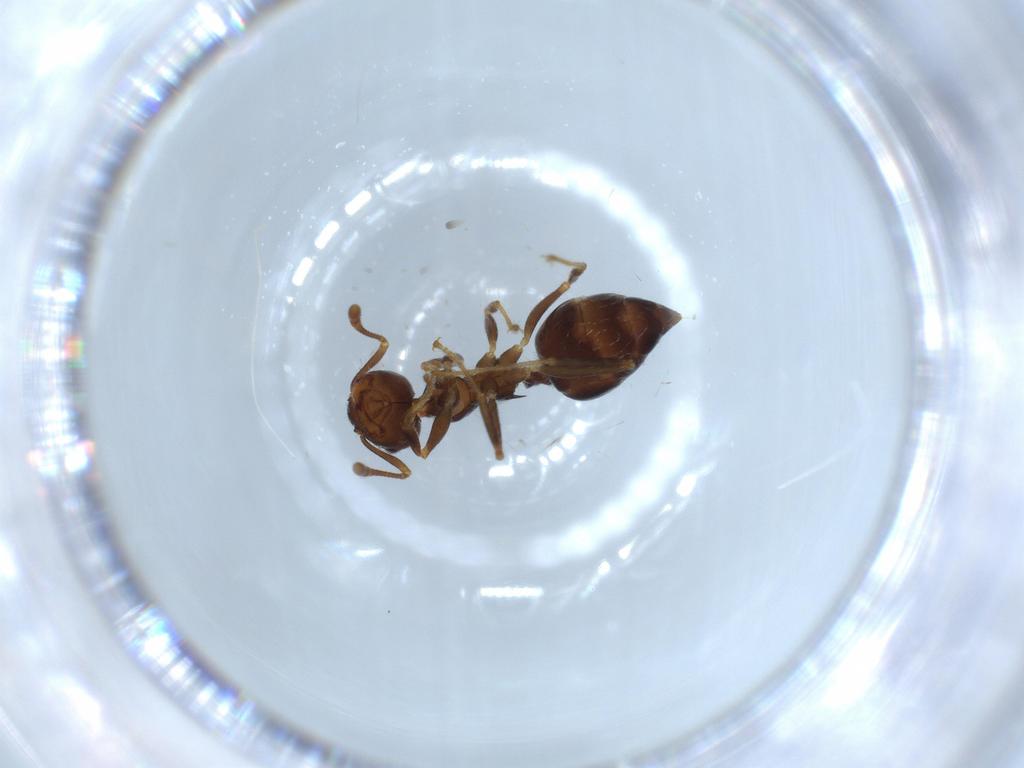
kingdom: Animalia
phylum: Arthropoda
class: Insecta
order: Hymenoptera
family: Formicidae
